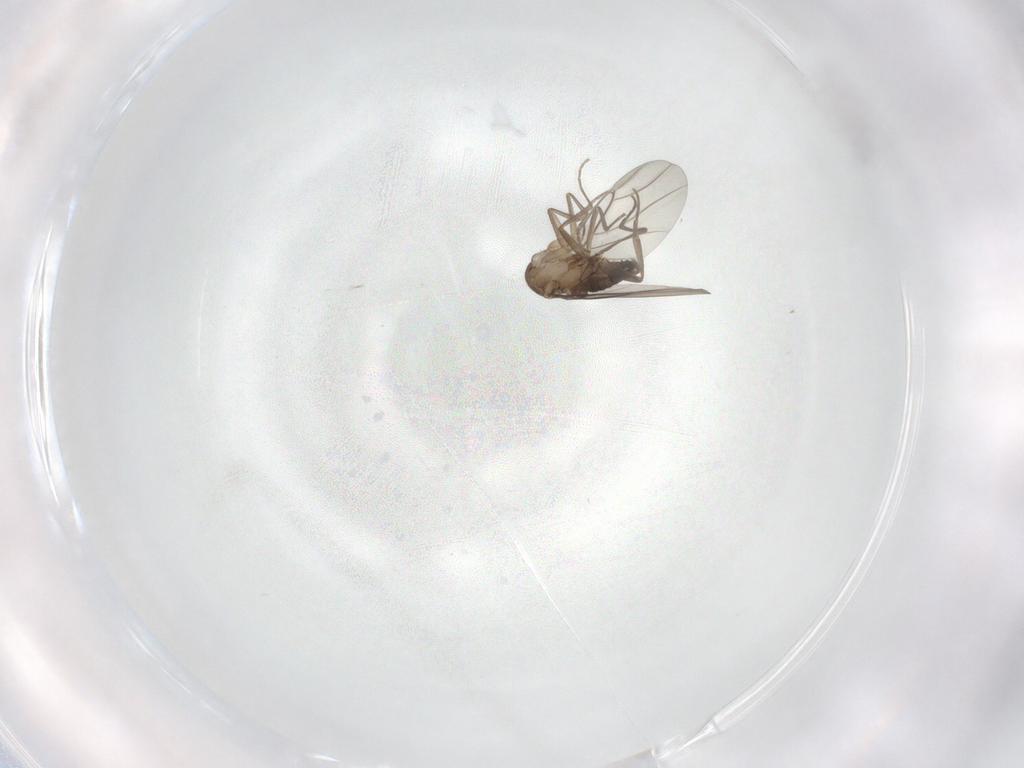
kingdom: Animalia
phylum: Arthropoda
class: Insecta
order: Diptera
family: Phoridae
